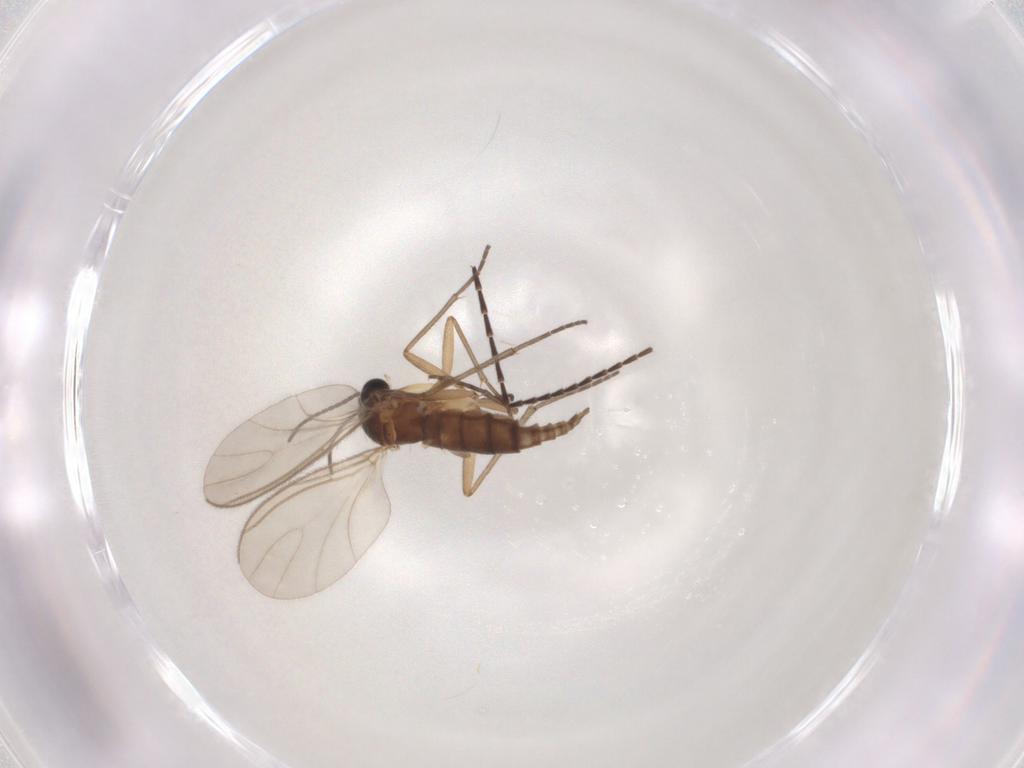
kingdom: Animalia
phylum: Arthropoda
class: Insecta
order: Diptera
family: Sciaridae
